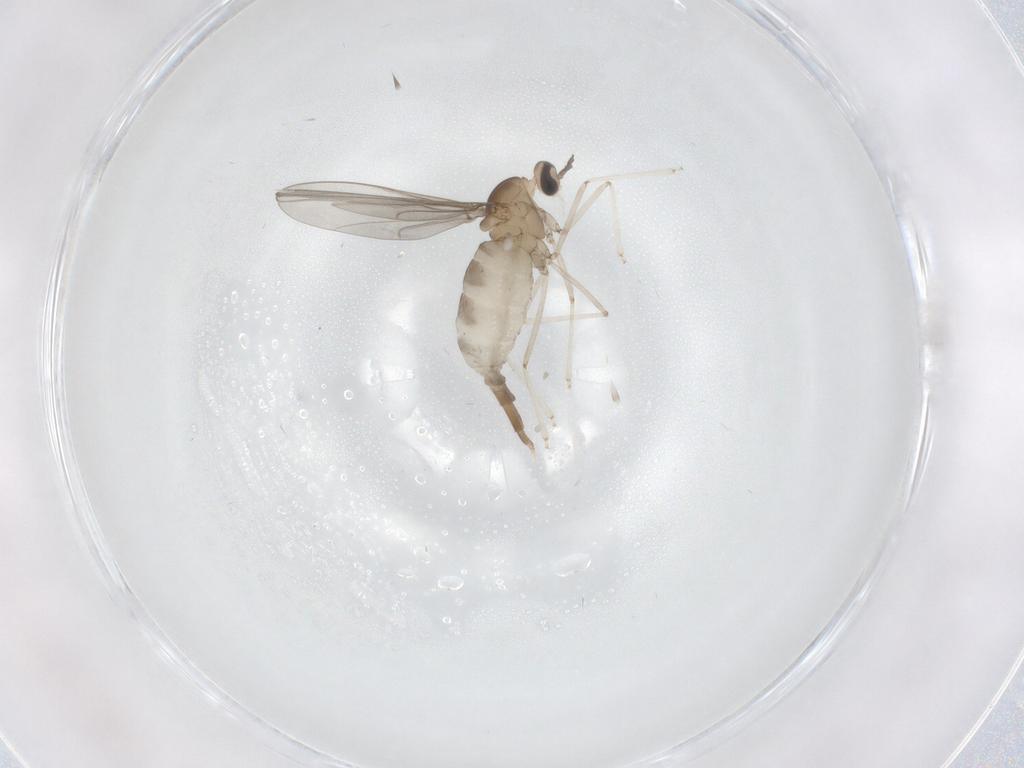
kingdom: Animalia
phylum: Arthropoda
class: Insecta
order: Diptera
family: Cecidomyiidae
